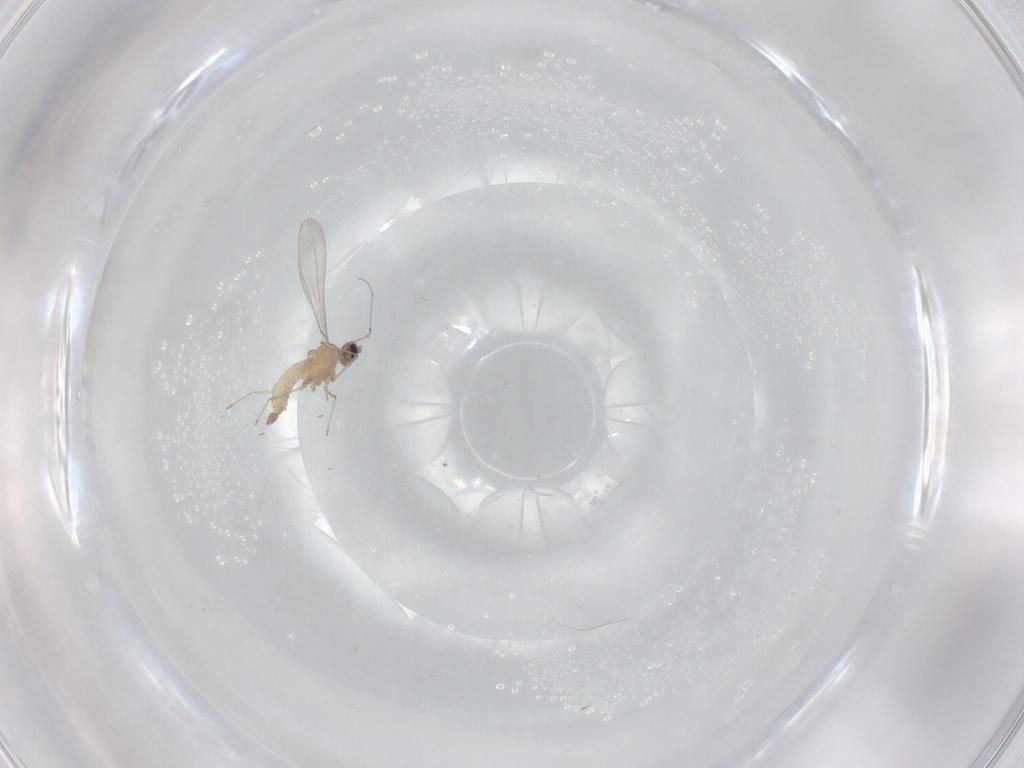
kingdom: Animalia
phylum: Arthropoda
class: Insecta
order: Diptera
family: Cecidomyiidae
